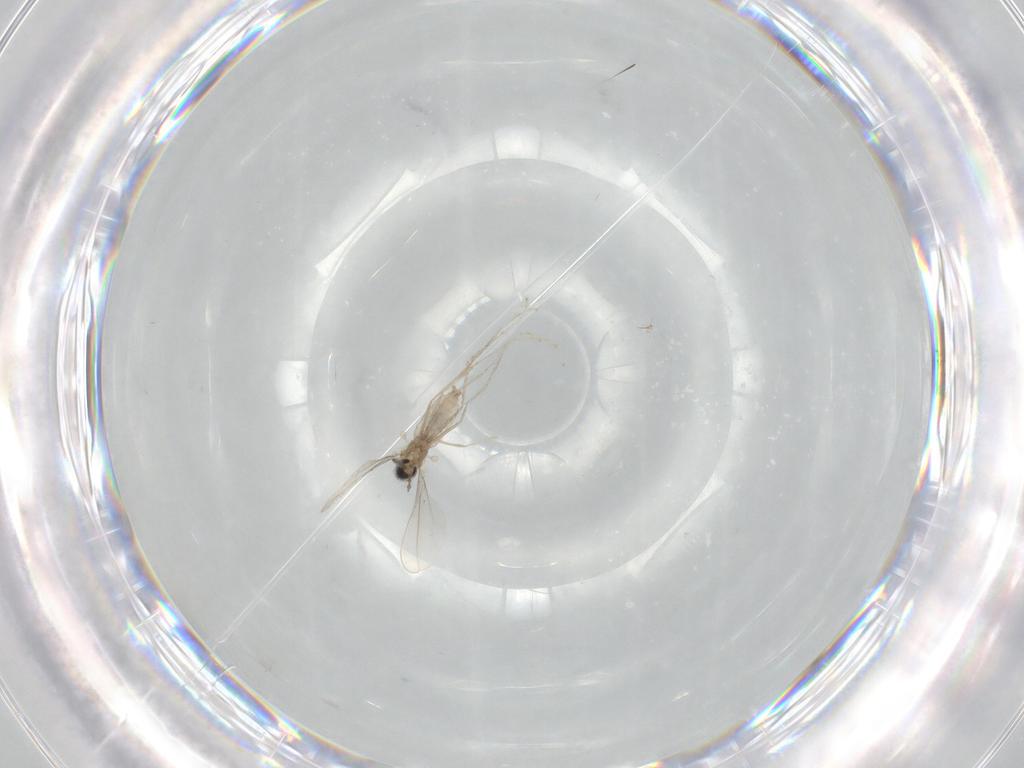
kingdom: Animalia
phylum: Arthropoda
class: Insecta
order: Diptera
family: Cecidomyiidae
